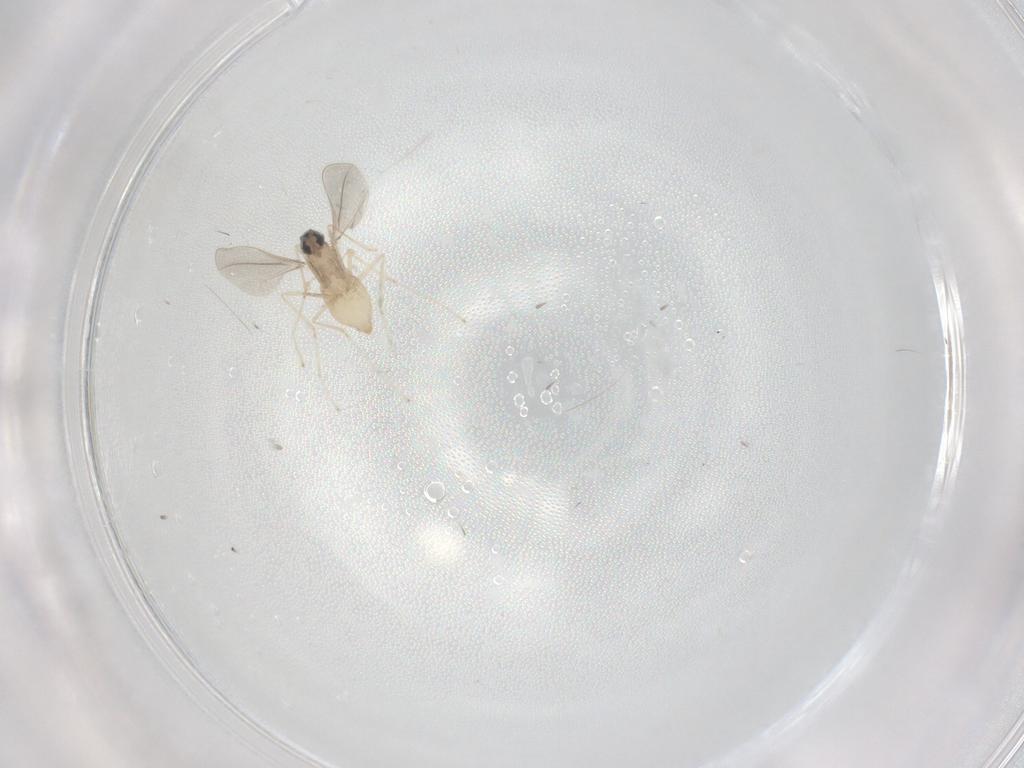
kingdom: Animalia
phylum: Arthropoda
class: Insecta
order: Diptera
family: Cecidomyiidae
